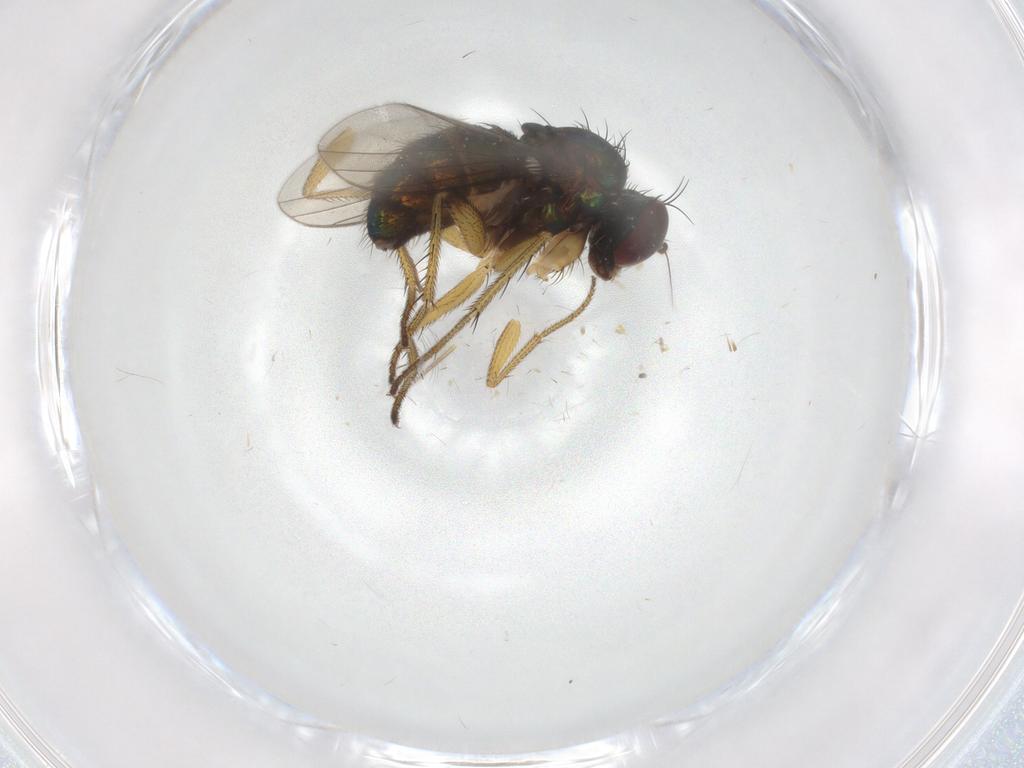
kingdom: Animalia
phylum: Arthropoda
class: Insecta
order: Diptera
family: Dolichopodidae
